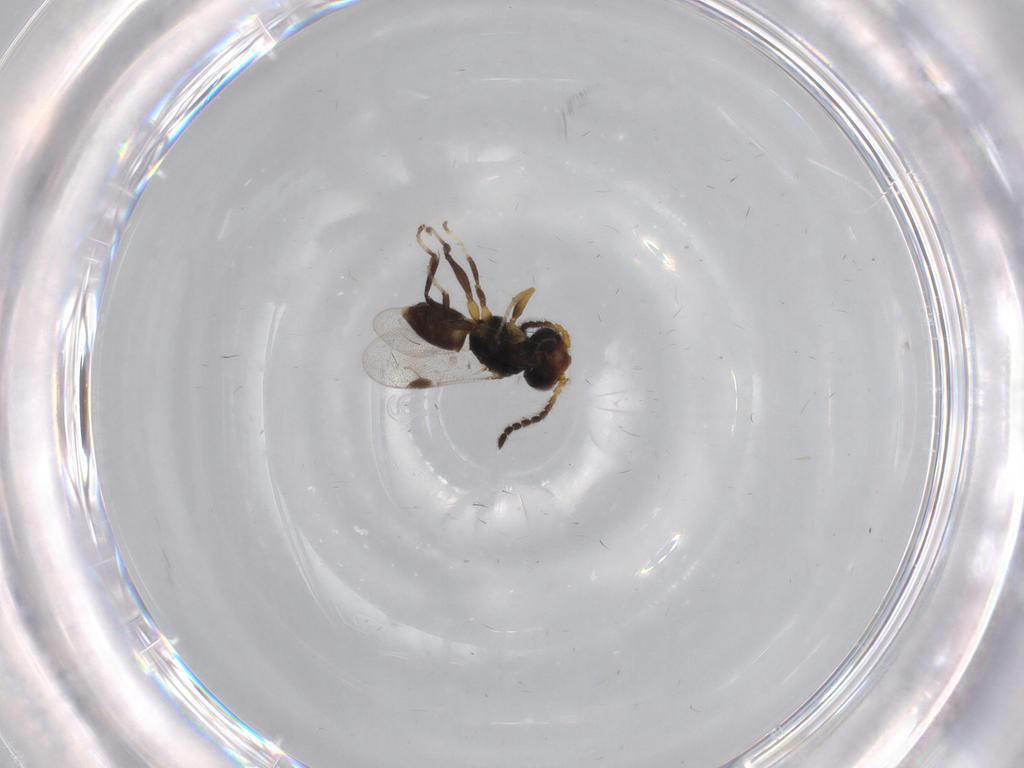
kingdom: Animalia
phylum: Arthropoda
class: Insecta
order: Hymenoptera
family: Dryinidae
